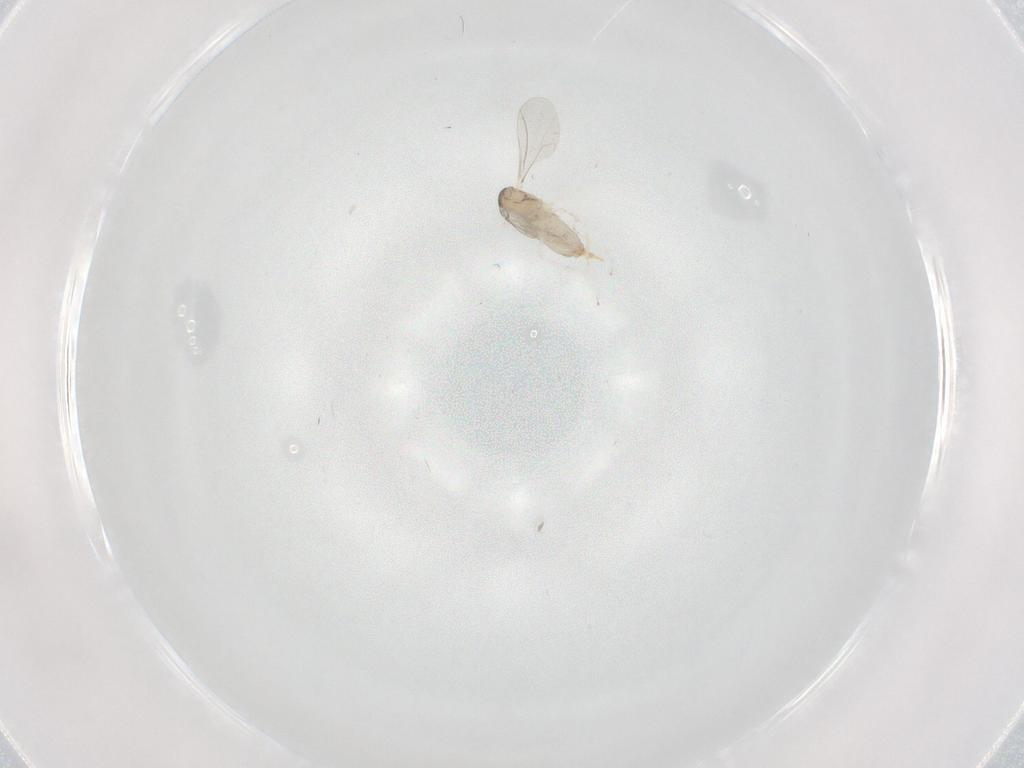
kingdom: Animalia
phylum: Arthropoda
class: Insecta
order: Diptera
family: Cecidomyiidae
